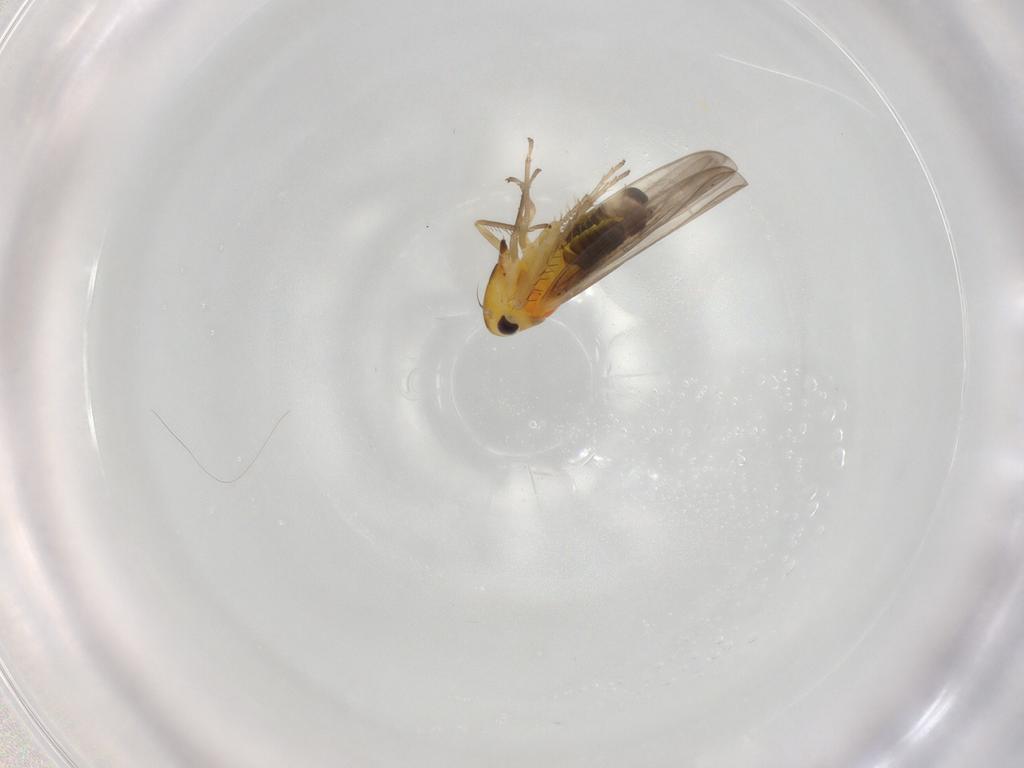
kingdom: Animalia
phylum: Arthropoda
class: Insecta
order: Hemiptera
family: Cicadellidae
